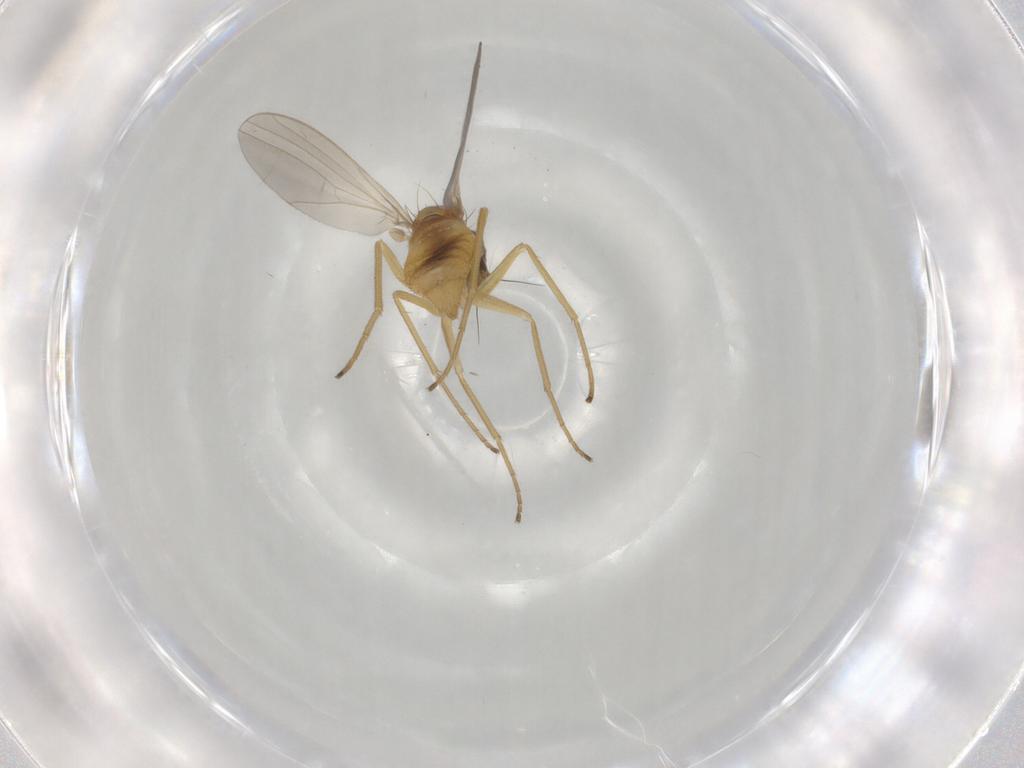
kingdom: Animalia
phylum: Arthropoda
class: Insecta
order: Diptera
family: Dolichopodidae
